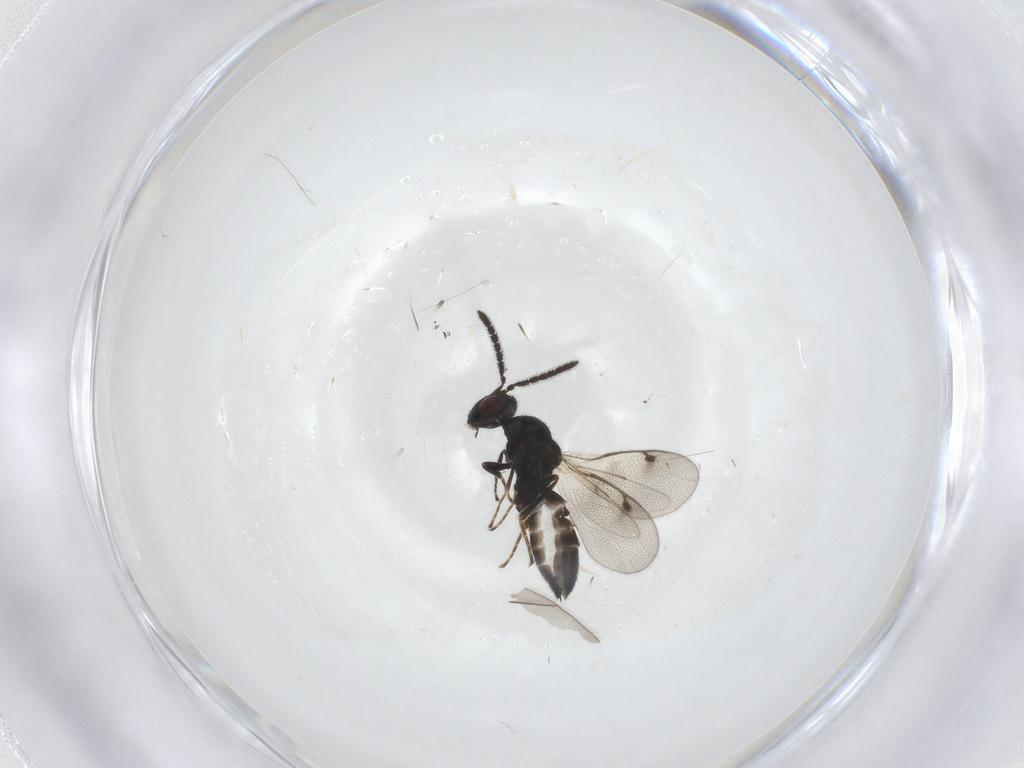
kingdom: Animalia
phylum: Arthropoda
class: Insecta
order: Hymenoptera
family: Pteromalidae
